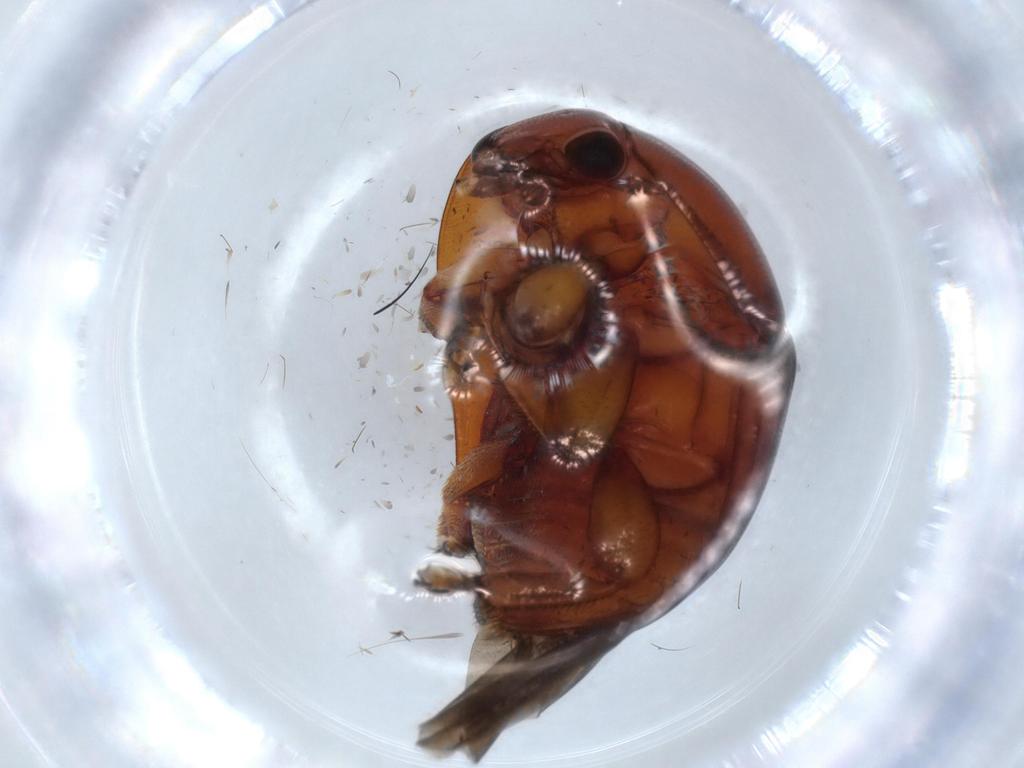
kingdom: Animalia
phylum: Arthropoda
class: Insecta
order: Coleoptera
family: Nitidulidae
